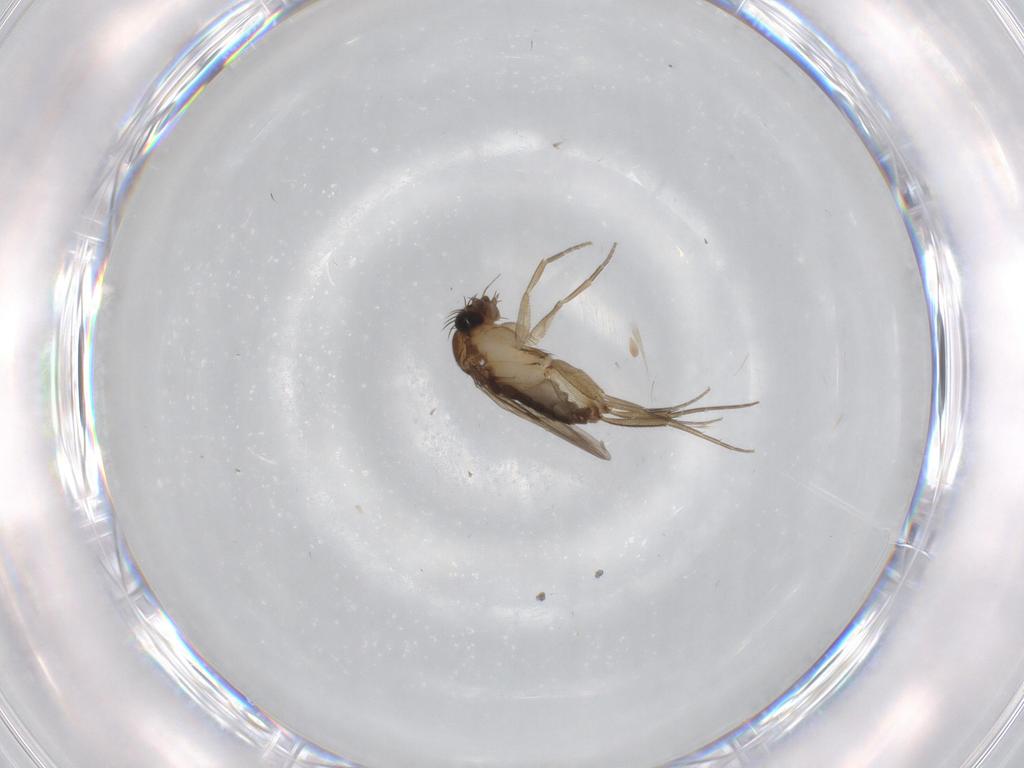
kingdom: Animalia
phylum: Arthropoda
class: Insecta
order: Diptera
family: Phoridae
